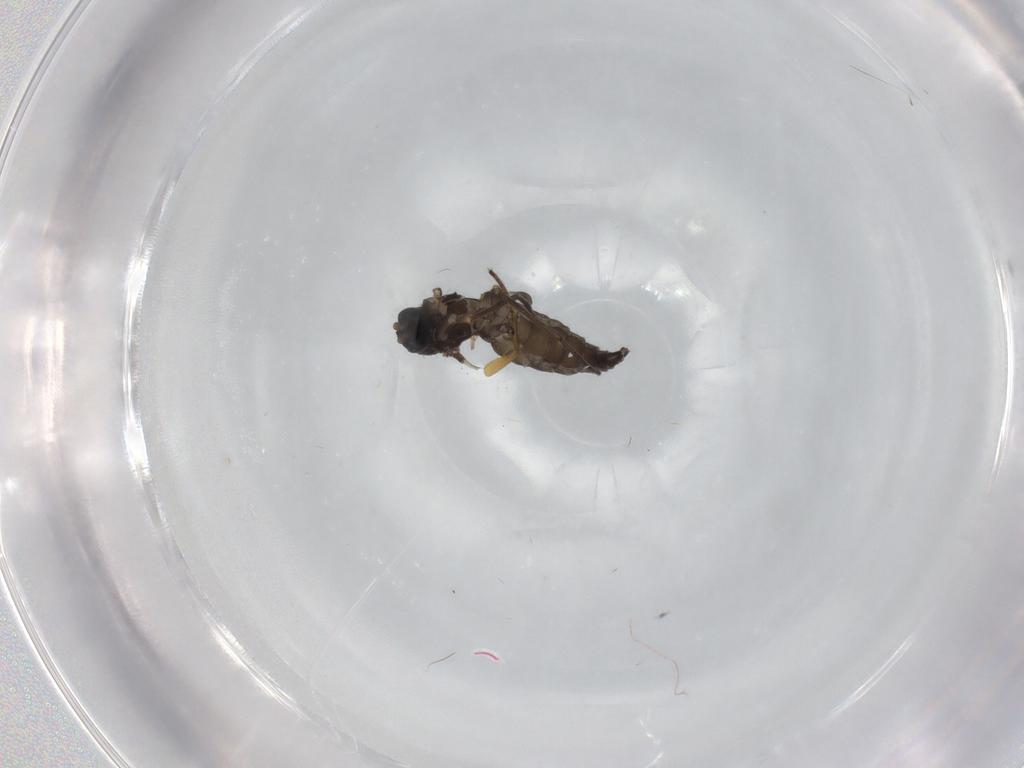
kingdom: Animalia
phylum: Arthropoda
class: Insecta
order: Diptera
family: Sciaridae
